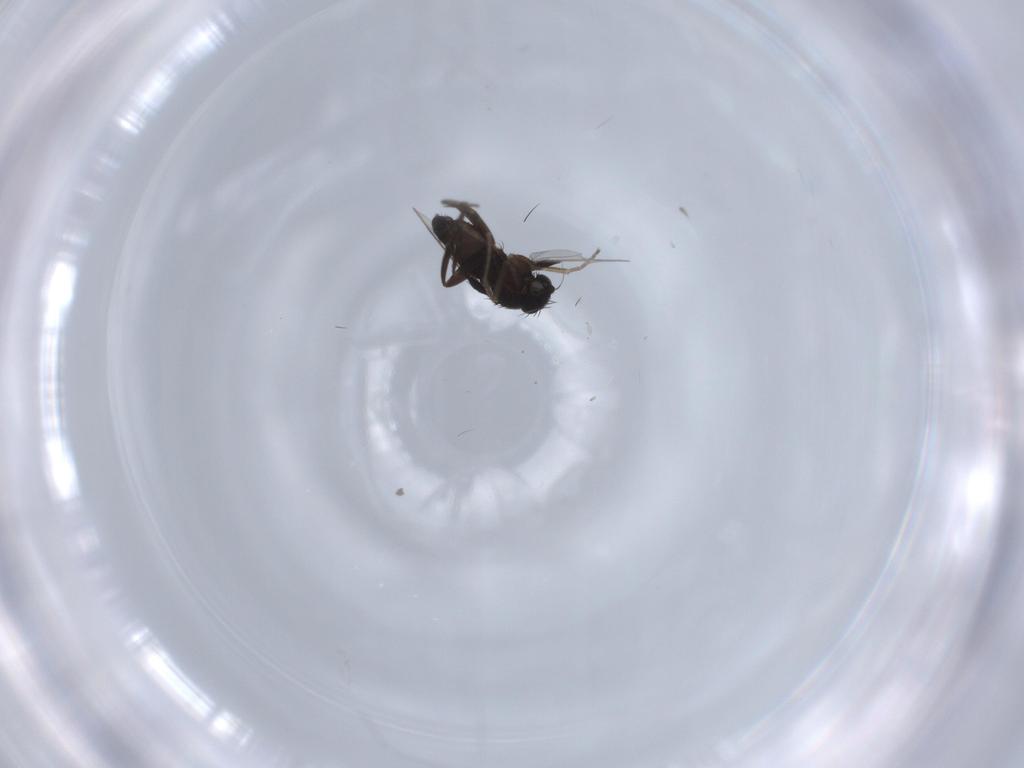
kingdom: Animalia
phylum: Arthropoda
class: Insecta
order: Diptera
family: Phoridae
